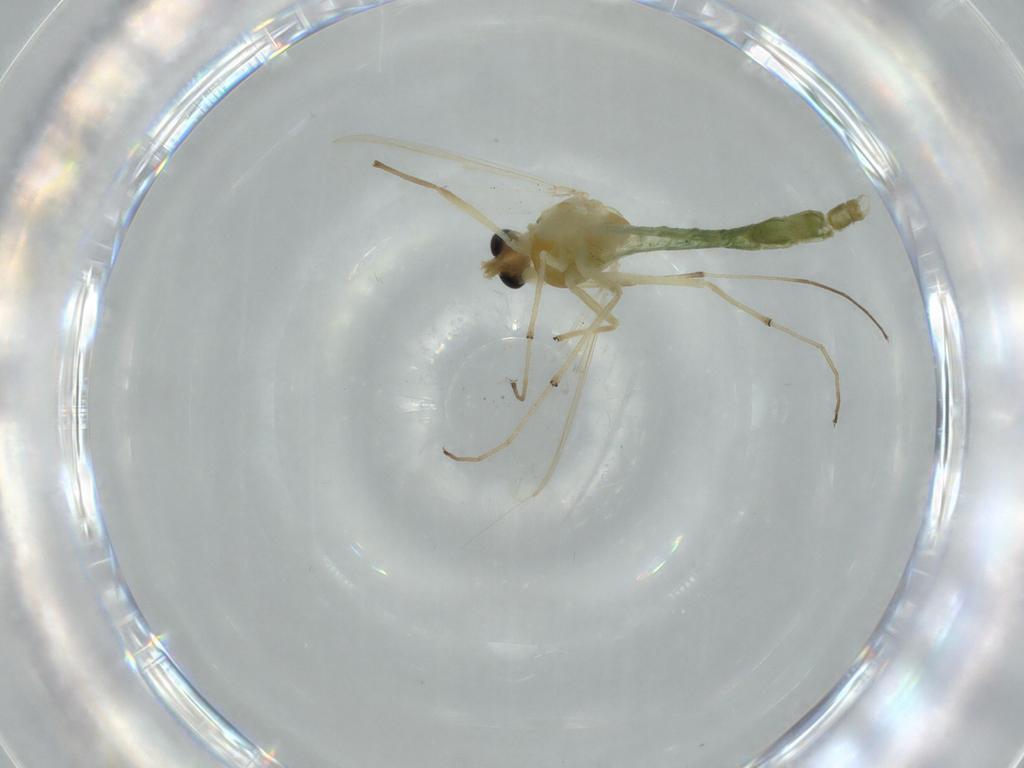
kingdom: Animalia
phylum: Arthropoda
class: Insecta
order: Diptera
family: Chironomidae
